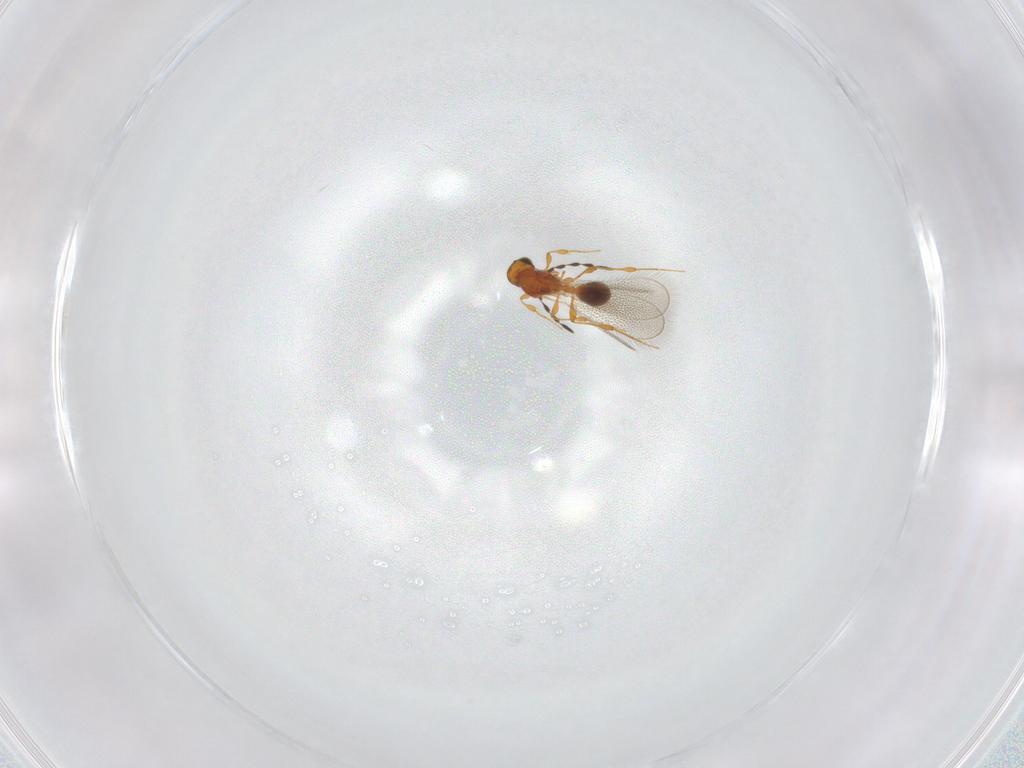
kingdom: Animalia
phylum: Arthropoda
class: Insecta
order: Hymenoptera
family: Platygastridae
